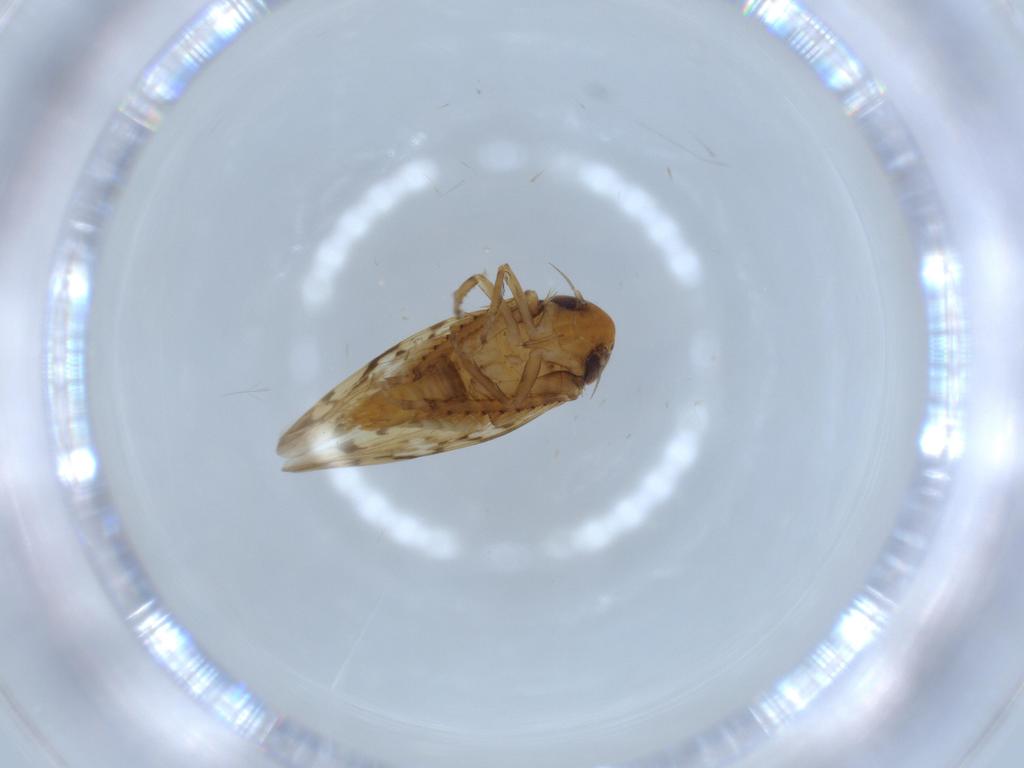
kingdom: Animalia
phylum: Arthropoda
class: Insecta
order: Hemiptera
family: Cicadellidae
